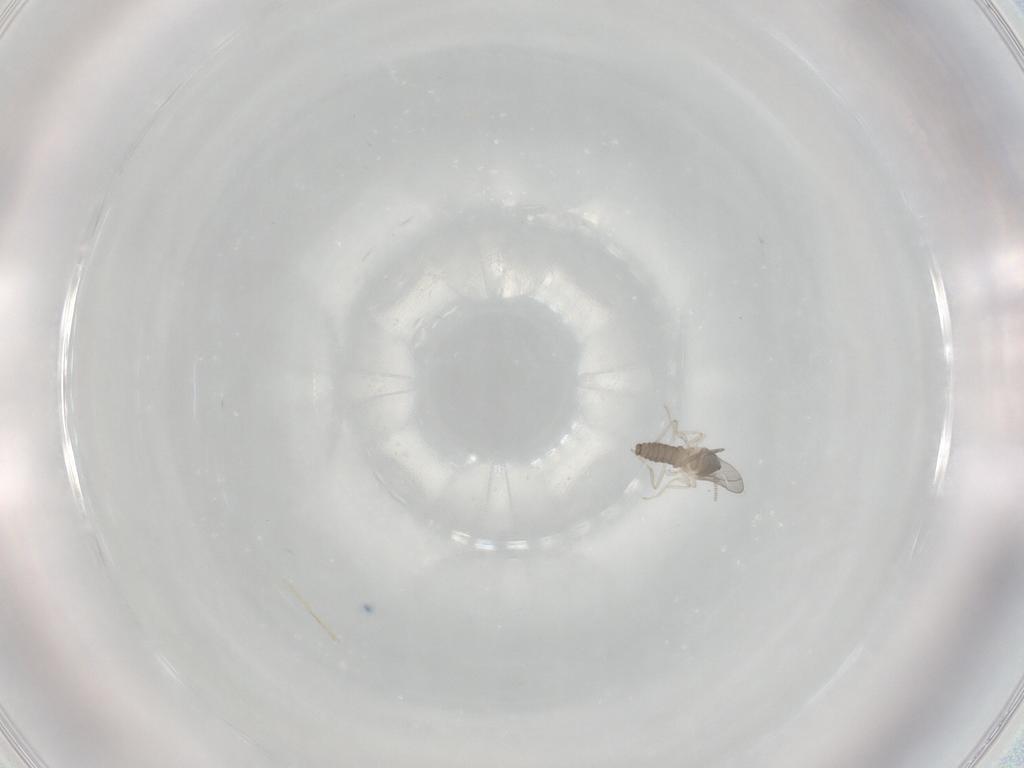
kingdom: Animalia
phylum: Arthropoda
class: Insecta
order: Diptera
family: Cecidomyiidae
